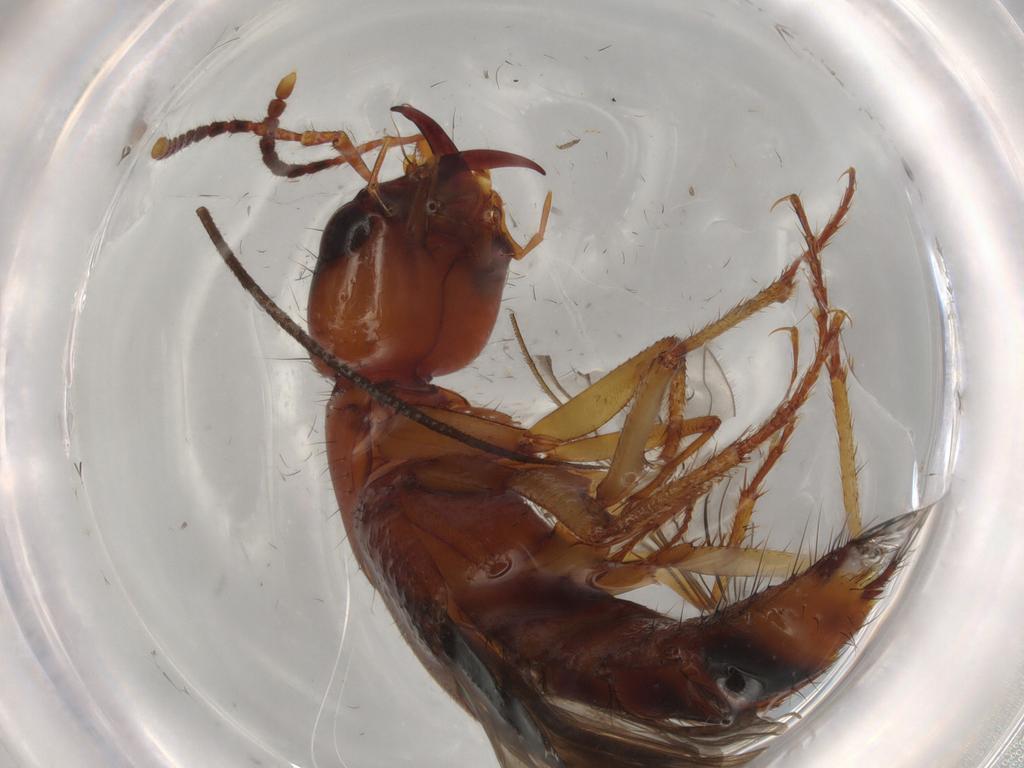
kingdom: Animalia
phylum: Arthropoda
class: Insecta
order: Coleoptera
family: Staphylinidae
